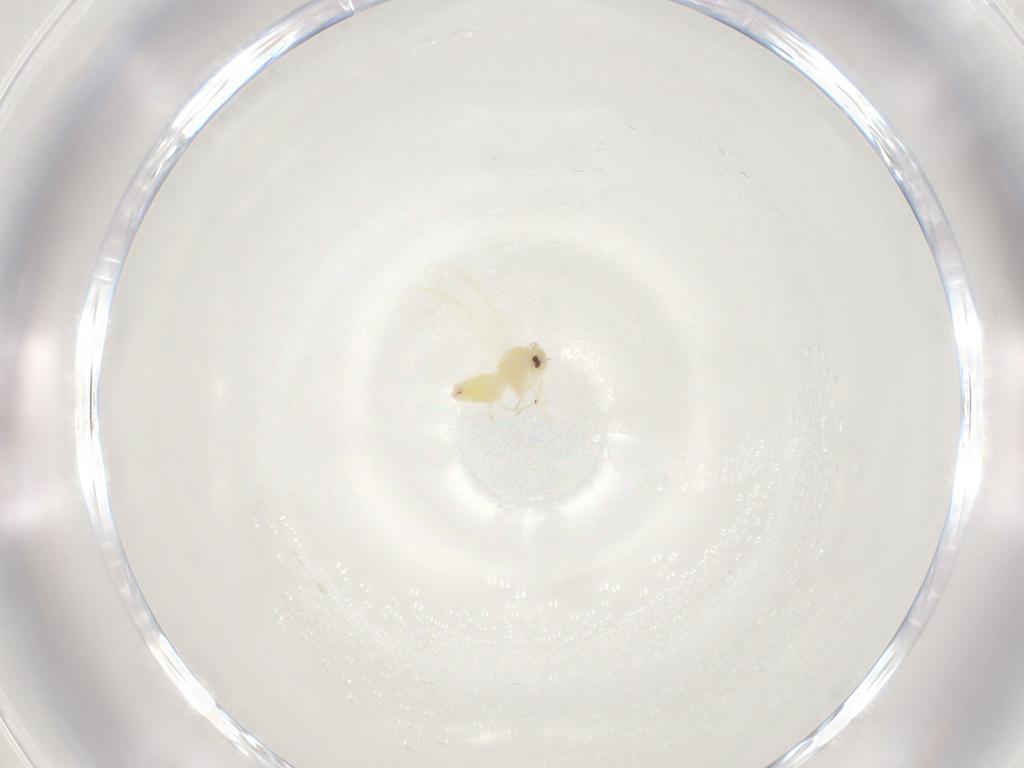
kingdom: Animalia
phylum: Arthropoda
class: Insecta
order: Hemiptera
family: Aleyrodidae
